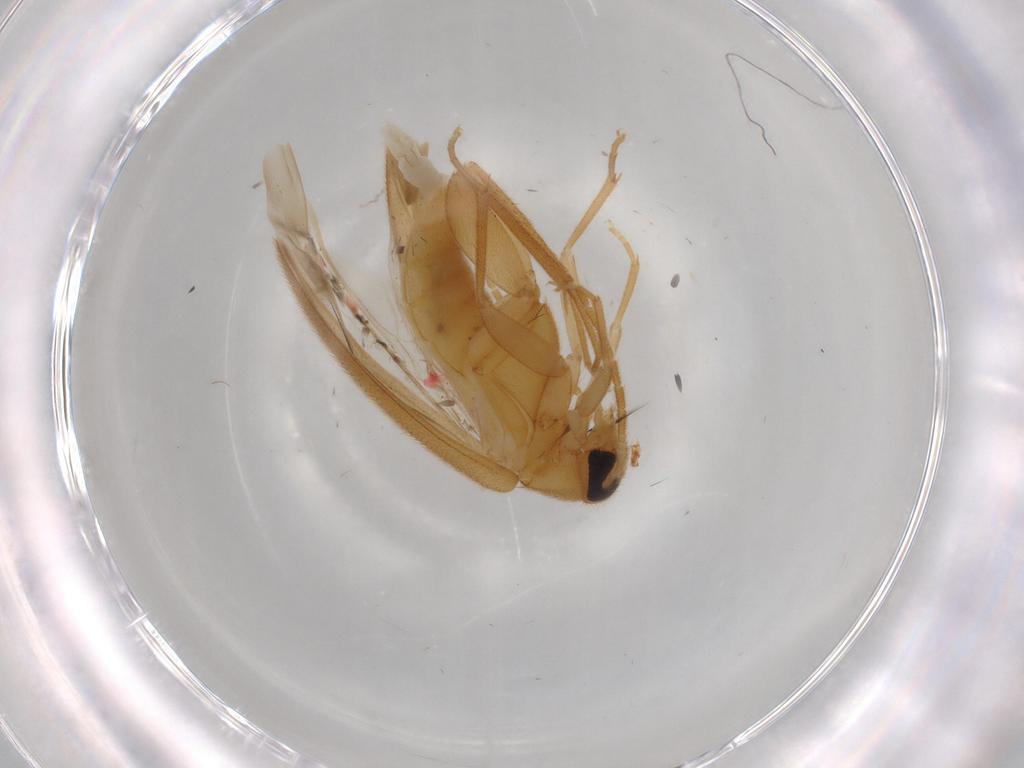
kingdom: Animalia
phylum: Arthropoda
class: Insecta
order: Coleoptera
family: Scraptiidae
